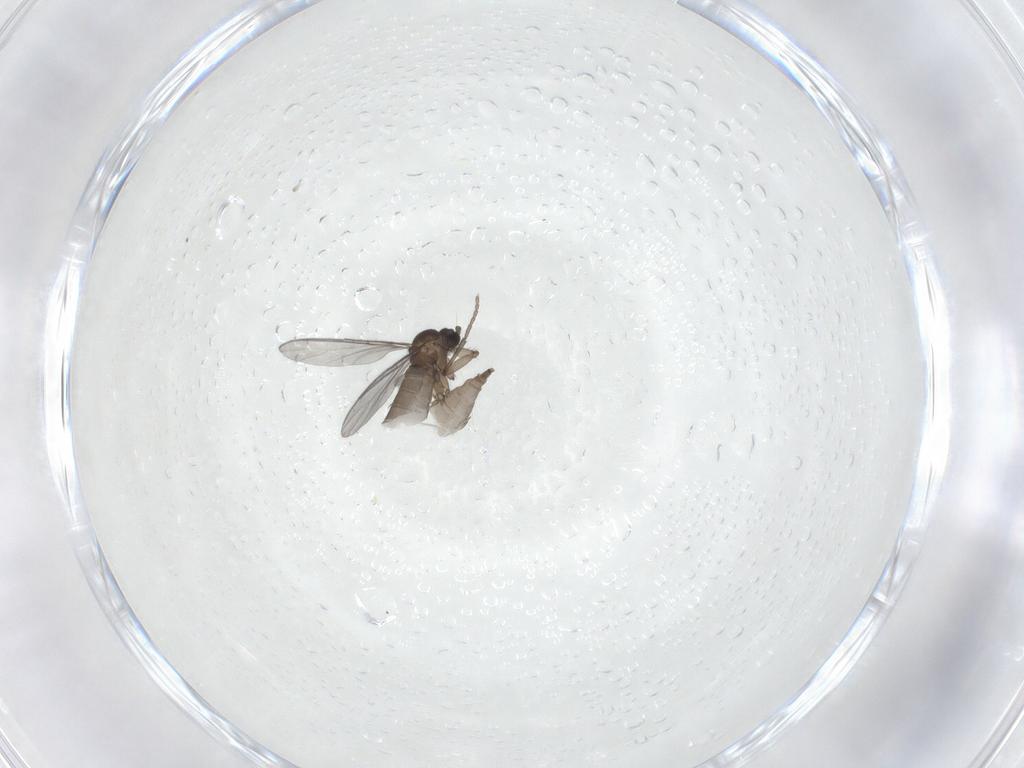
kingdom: Animalia
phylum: Arthropoda
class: Insecta
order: Diptera
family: Sciaridae
